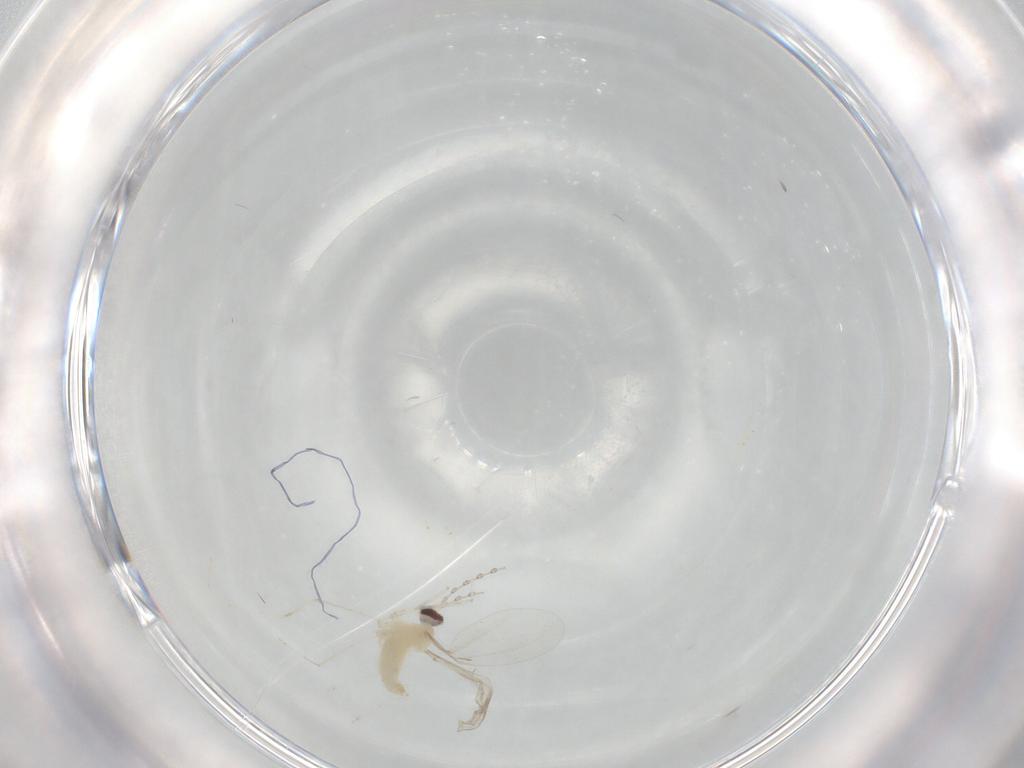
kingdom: Animalia
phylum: Arthropoda
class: Insecta
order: Diptera
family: Cecidomyiidae
